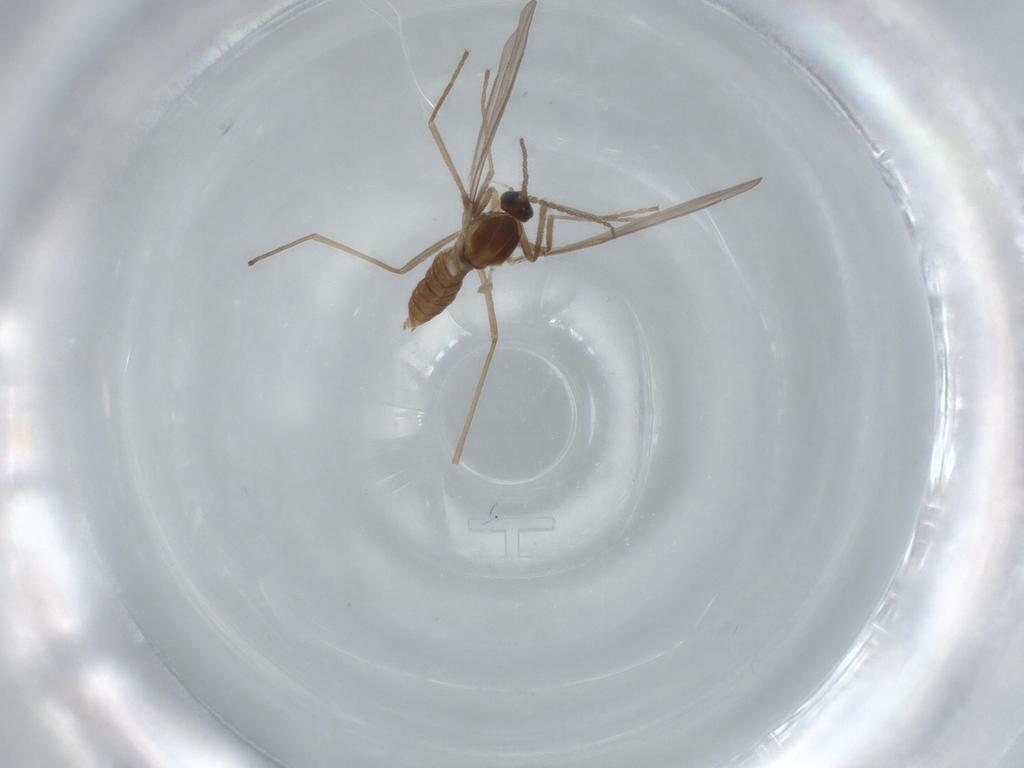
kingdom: Animalia
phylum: Arthropoda
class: Insecta
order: Diptera
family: Cecidomyiidae
